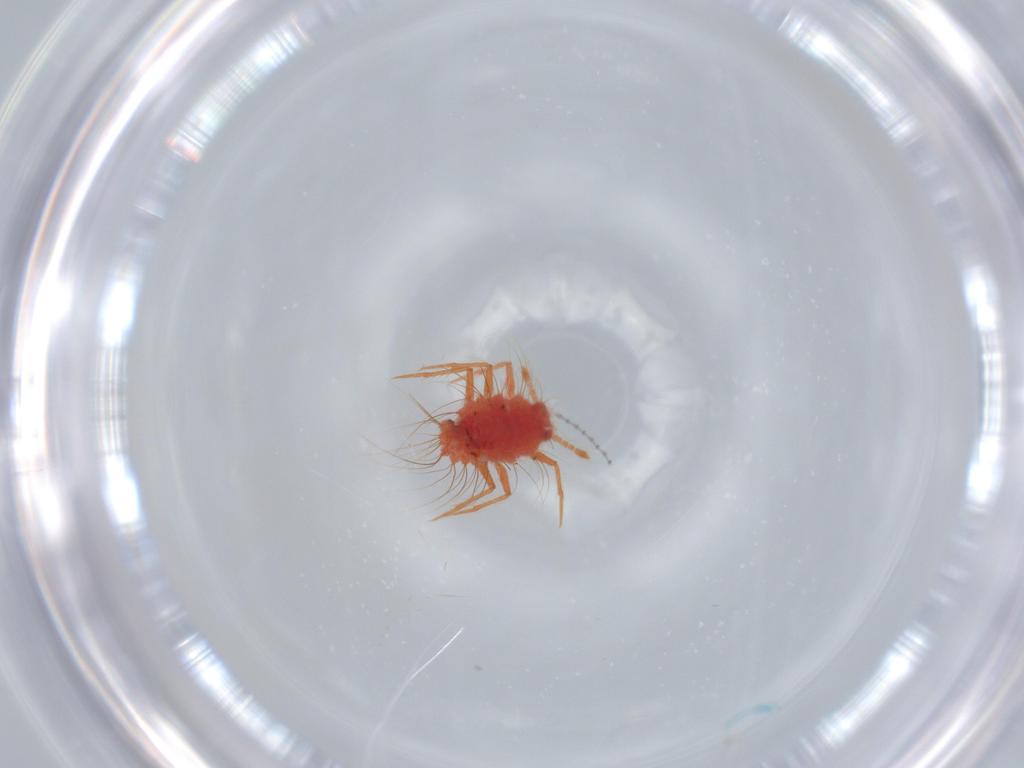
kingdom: Animalia
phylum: Arthropoda
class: Insecta
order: Hemiptera
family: Monophlebidae
